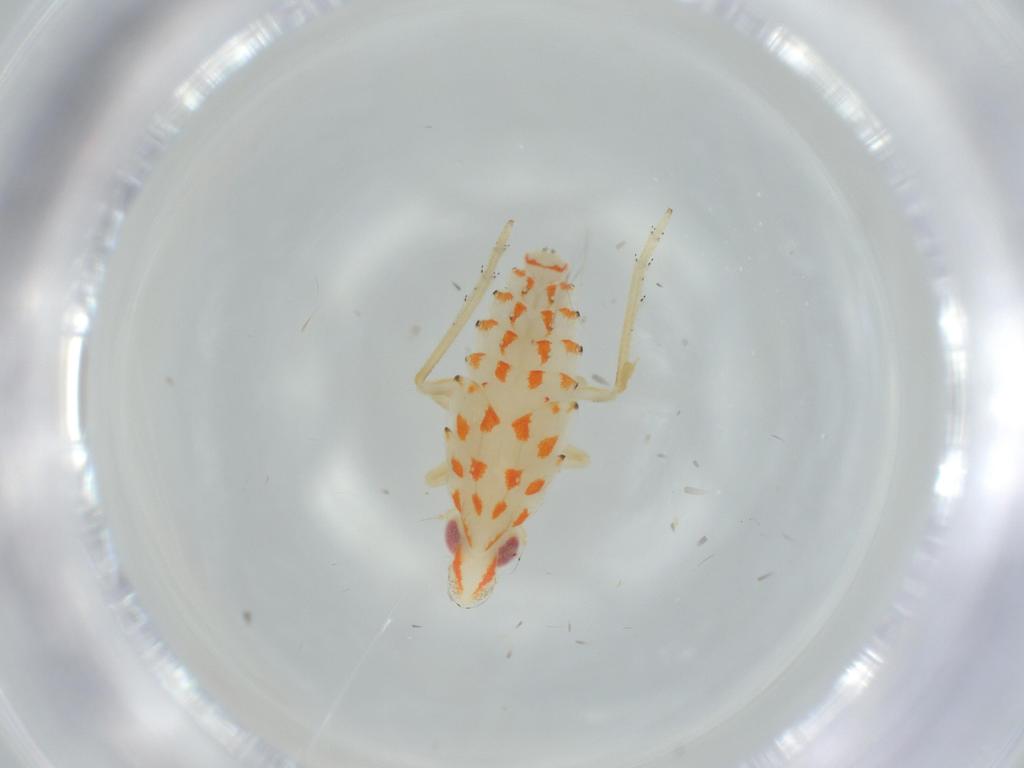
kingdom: Animalia
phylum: Arthropoda
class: Insecta
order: Hemiptera
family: Tropiduchidae
